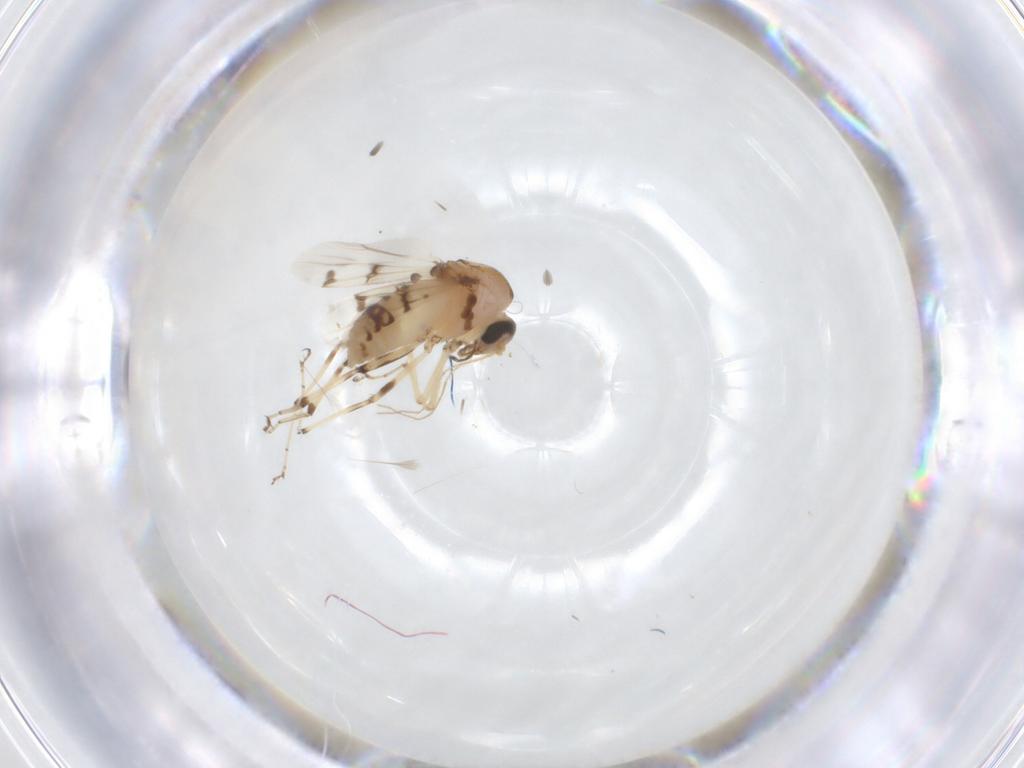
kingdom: Animalia
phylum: Arthropoda
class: Insecta
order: Diptera
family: Ceratopogonidae
